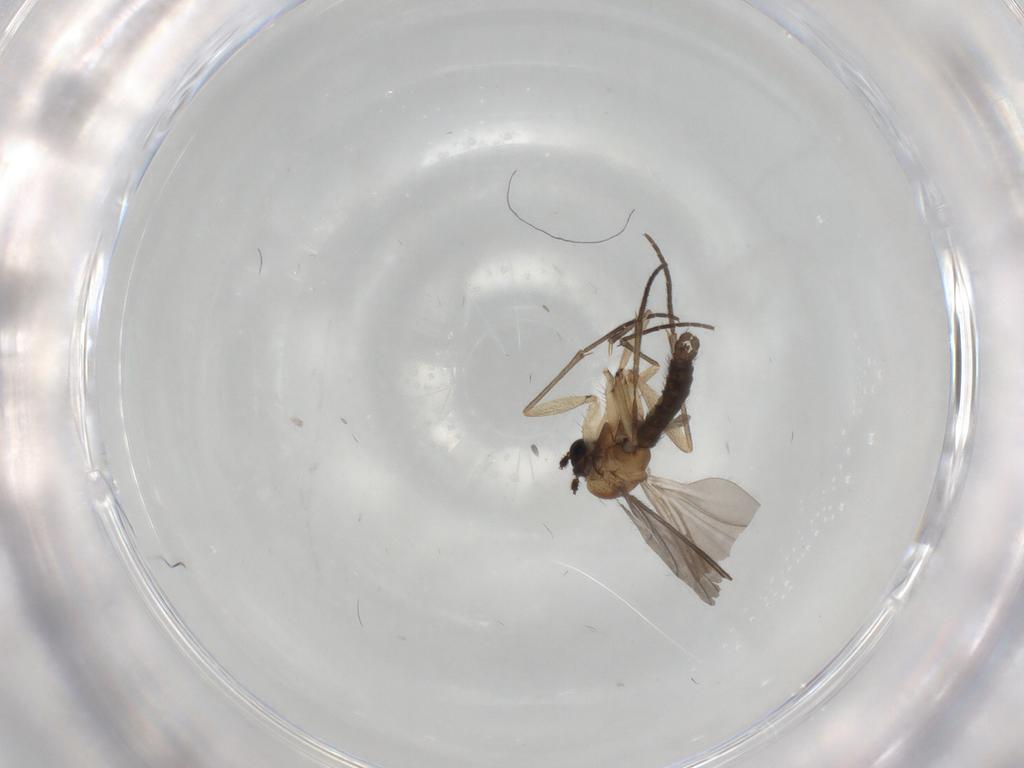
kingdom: Animalia
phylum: Arthropoda
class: Insecta
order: Diptera
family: Sciaridae
